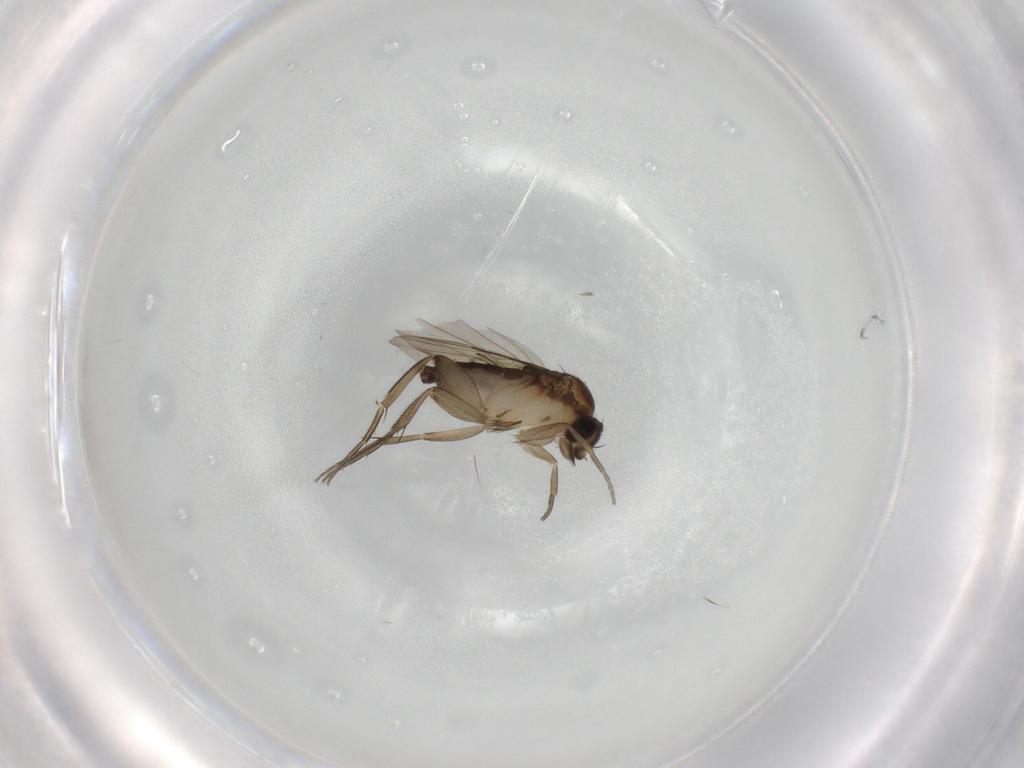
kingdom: Animalia
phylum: Arthropoda
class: Insecta
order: Diptera
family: Phoridae
